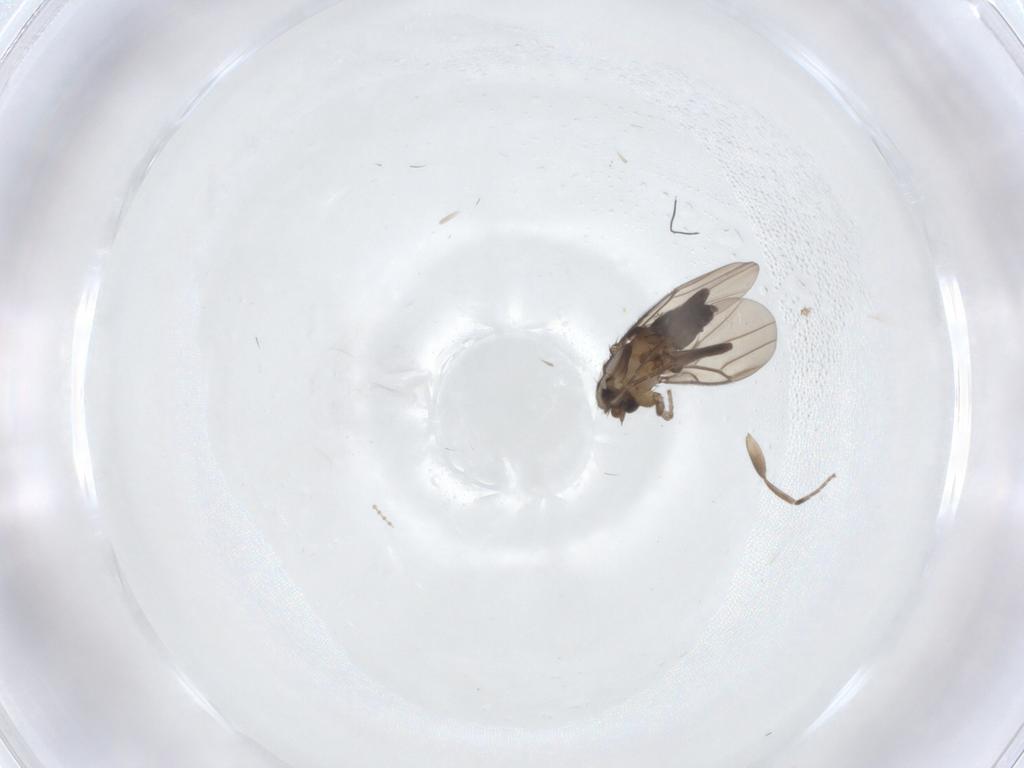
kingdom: Animalia
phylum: Arthropoda
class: Insecta
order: Diptera
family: Cecidomyiidae
